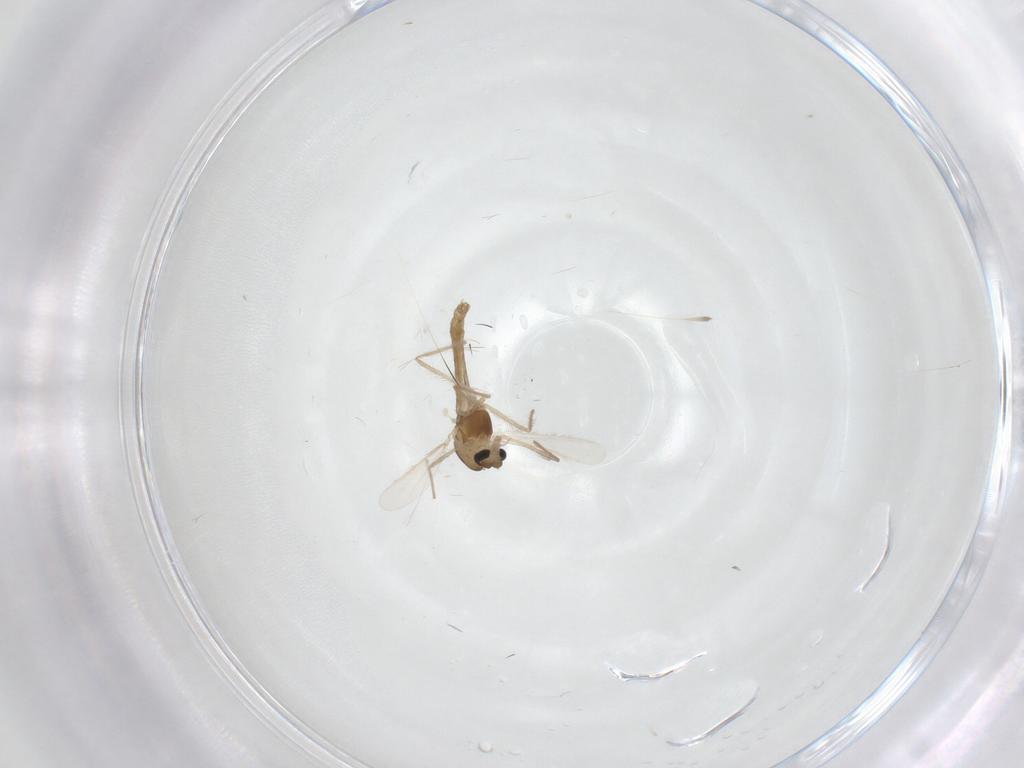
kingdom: Animalia
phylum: Arthropoda
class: Insecta
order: Diptera
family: Chironomidae
